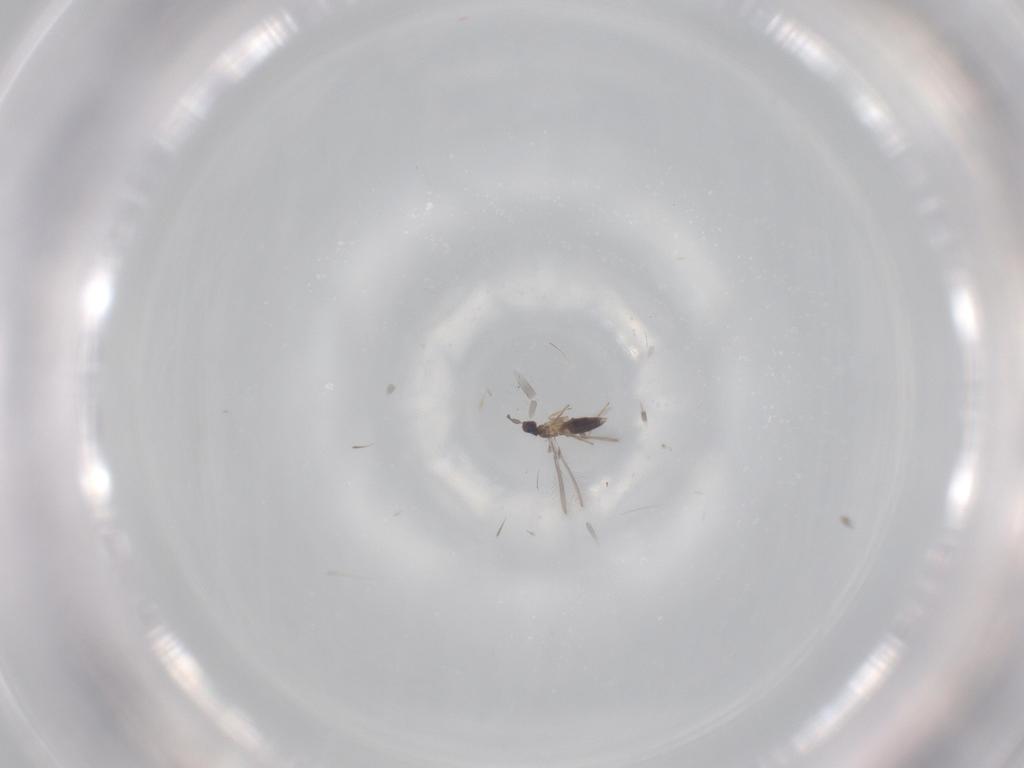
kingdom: Animalia
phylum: Arthropoda
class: Insecta
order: Hymenoptera
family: Mymaridae
